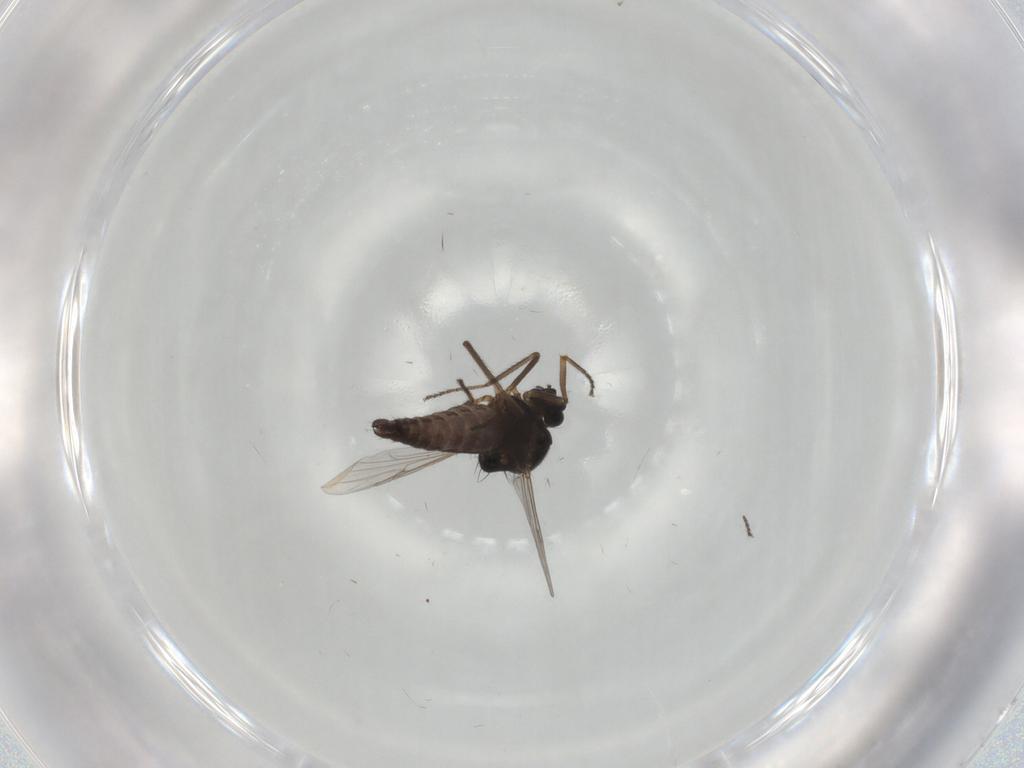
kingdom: Animalia
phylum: Arthropoda
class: Insecta
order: Diptera
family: Ceratopogonidae
